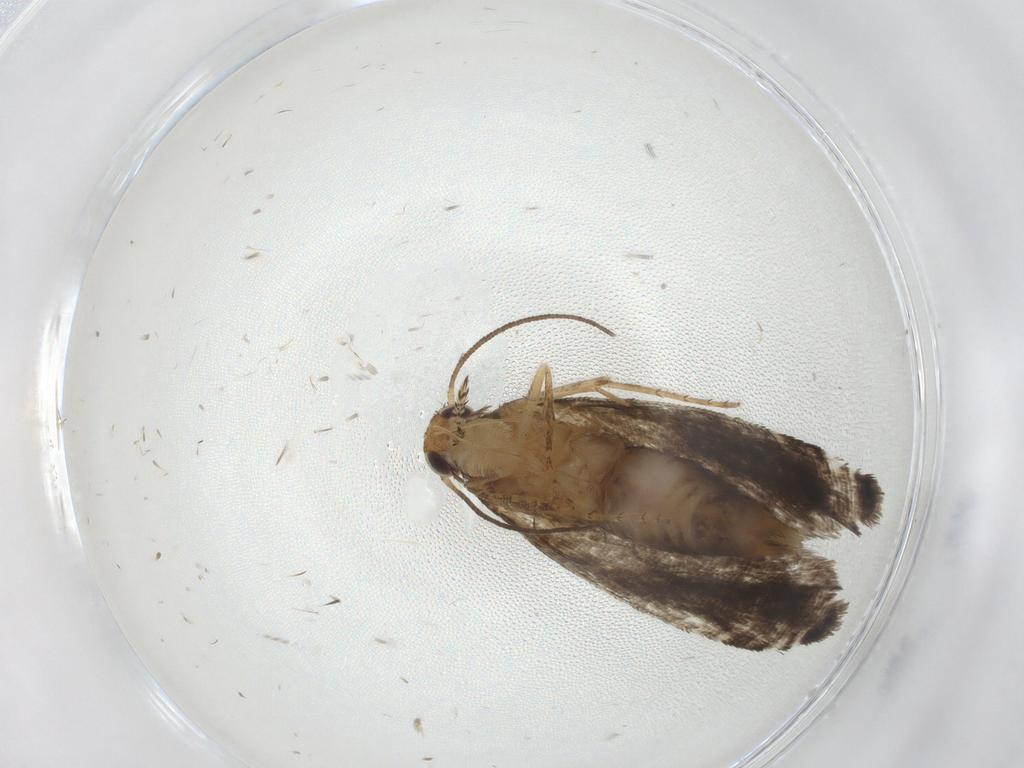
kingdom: Animalia
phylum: Arthropoda
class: Insecta
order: Lepidoptera
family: Glyphipterigidae
